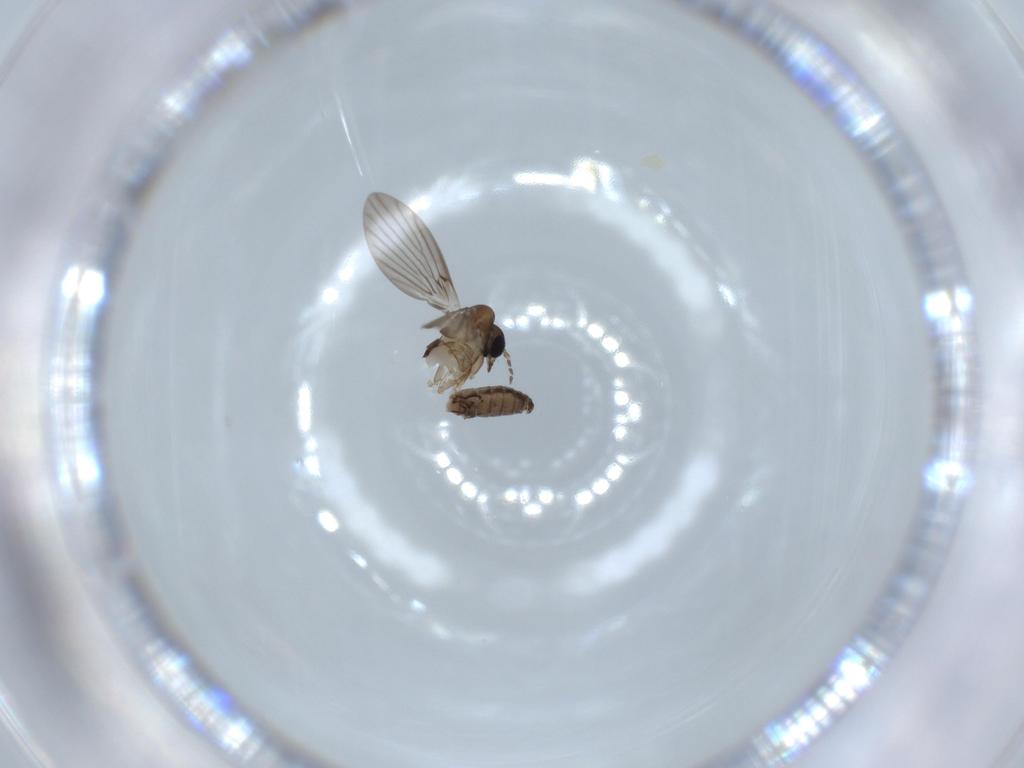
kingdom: Animalia
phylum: Arthropoda
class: Insecta
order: Diptera
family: Psychodidae
